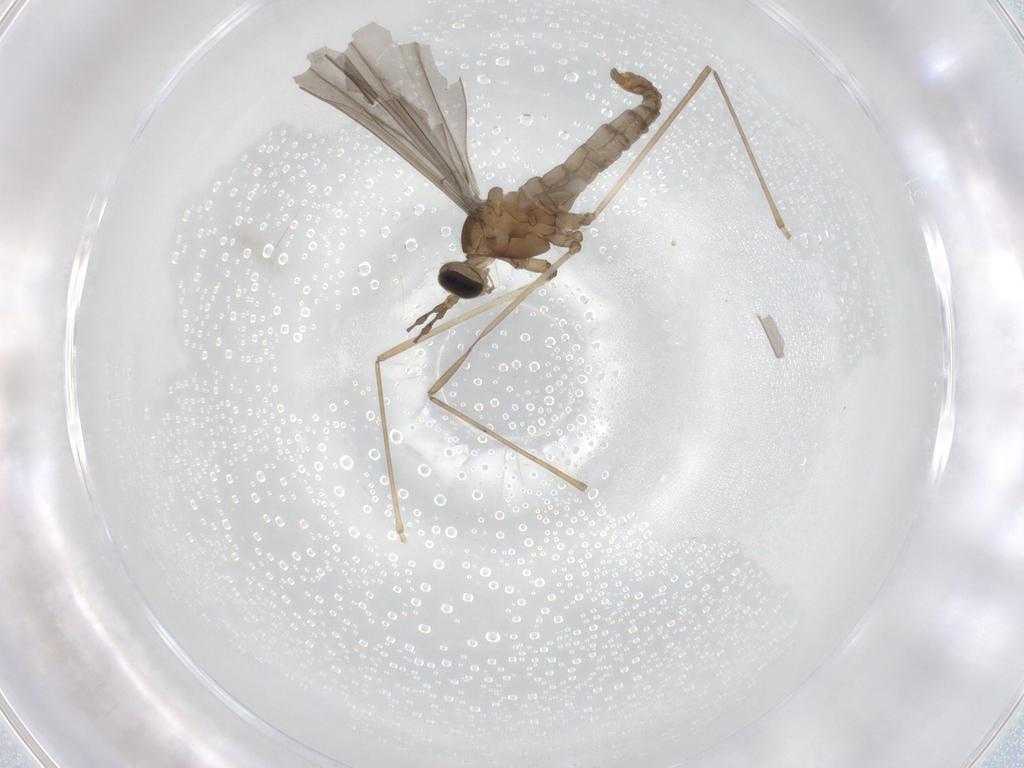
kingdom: Animalia
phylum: Arthropoda
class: Insecta
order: Diptera
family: Cecidomyiidae
